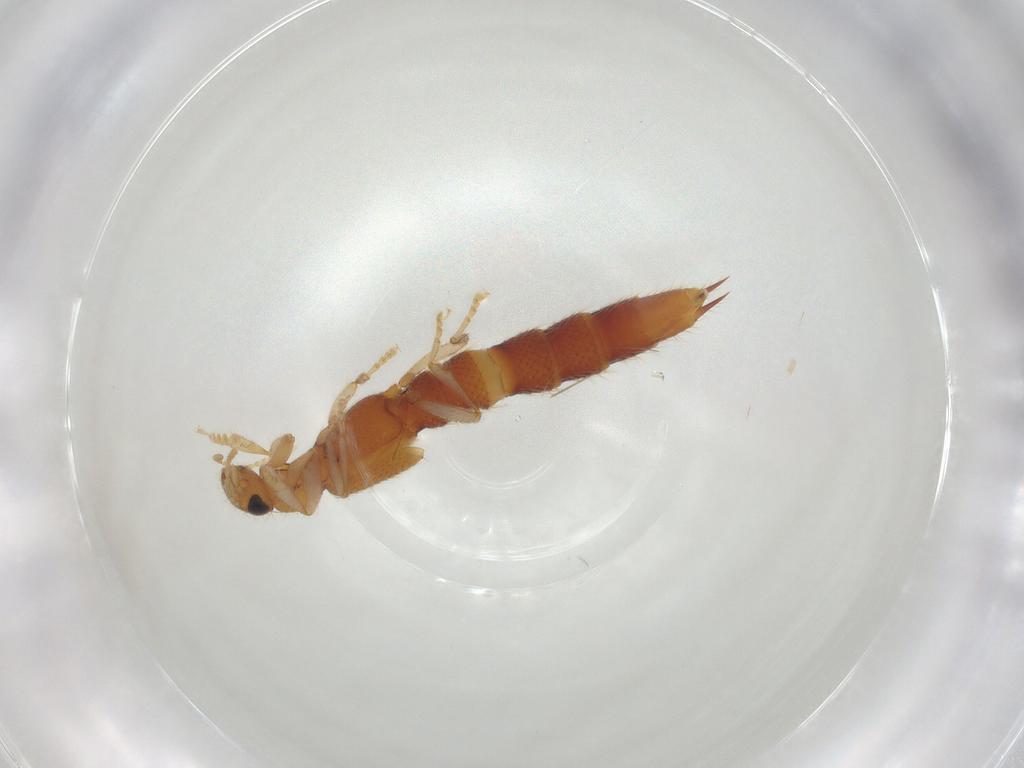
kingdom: Animalia
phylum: Arthropoda
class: Insecta
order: Coleoptera
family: Staphylinidae
